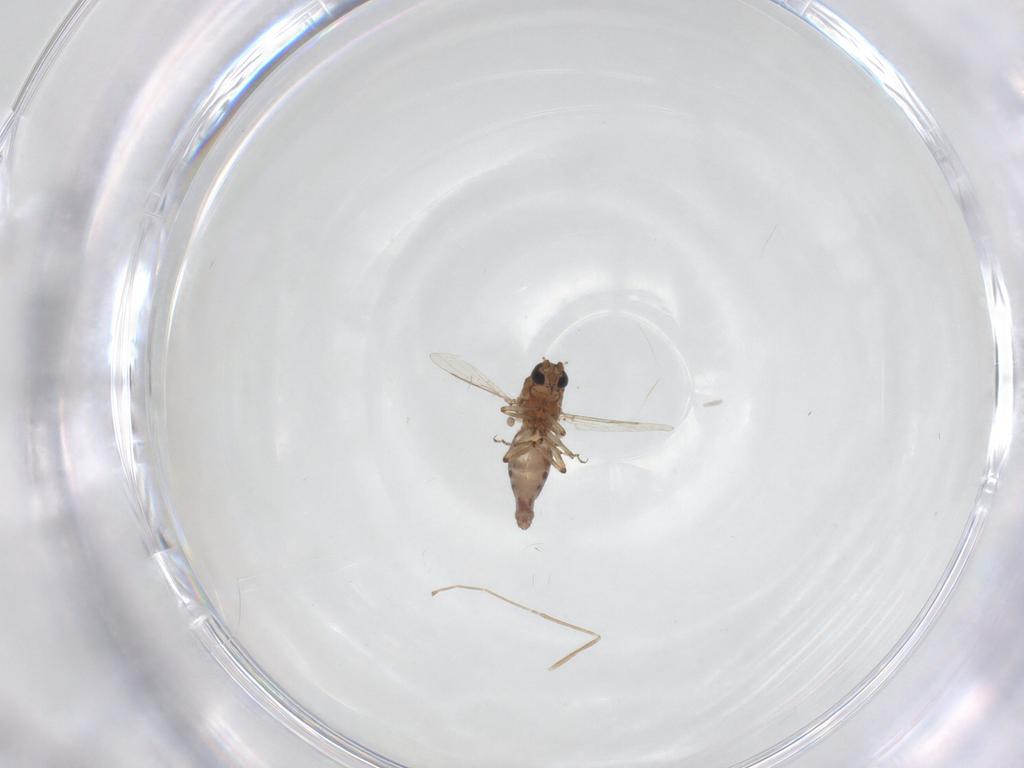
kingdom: Animalia
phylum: Arthropoda
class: Insecta
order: Diptera
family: Ceratopogonidae
